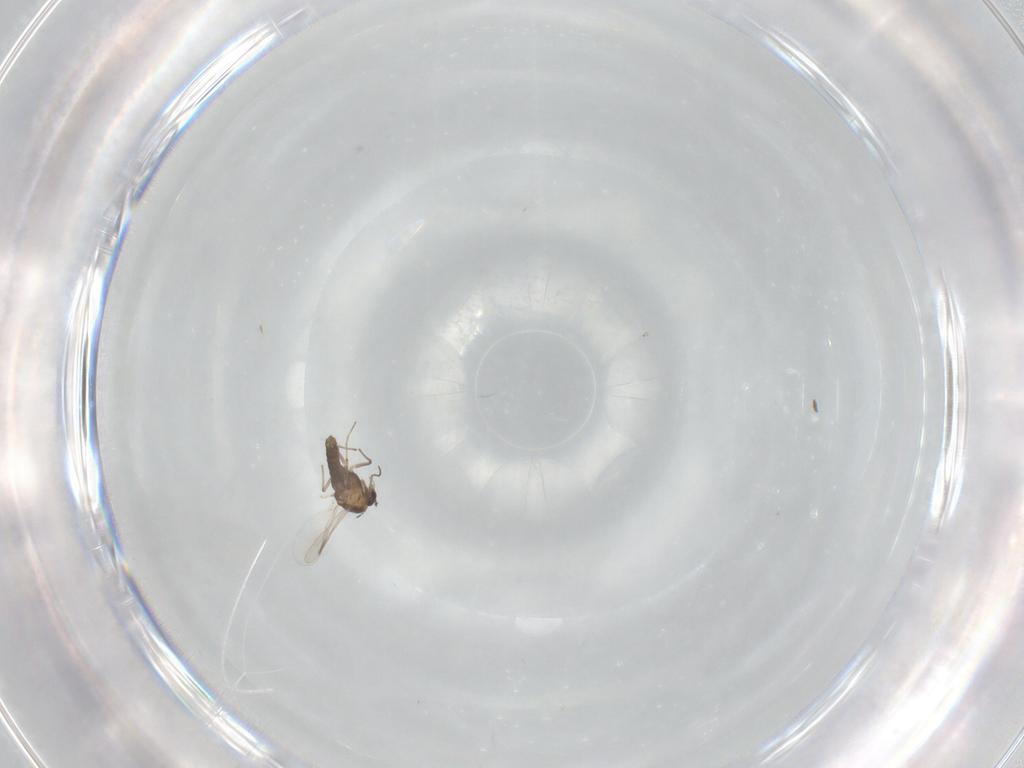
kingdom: Animalia
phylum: Arthropoda
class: Insecta
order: Diptera
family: Chironomidae
